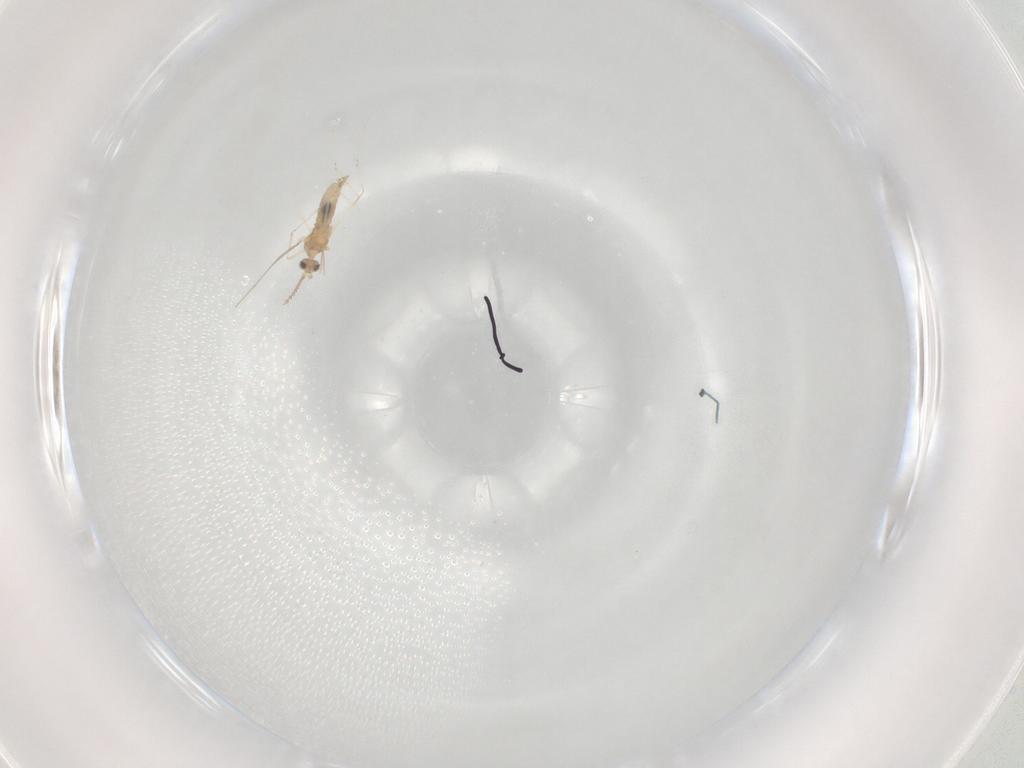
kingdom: Animalia
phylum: Arthropoda
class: Insecta
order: Diptera
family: Cecidomyiidae
